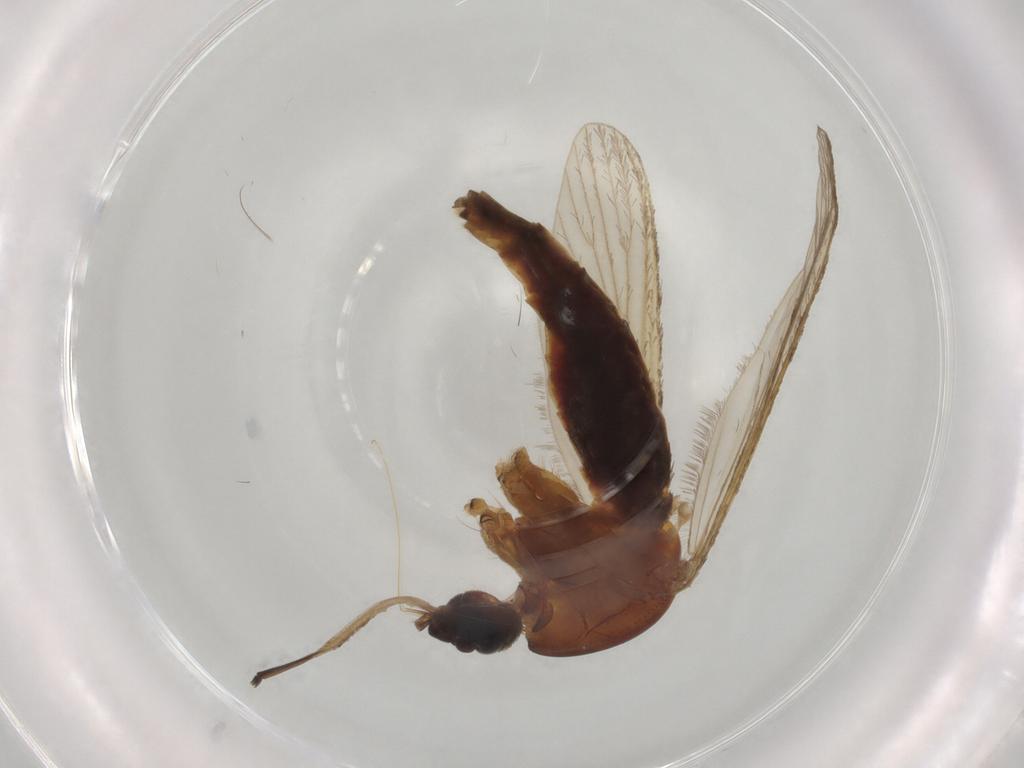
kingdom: Animalia
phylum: Arthropoda
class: Insecta
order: Diptera
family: Culicidae
